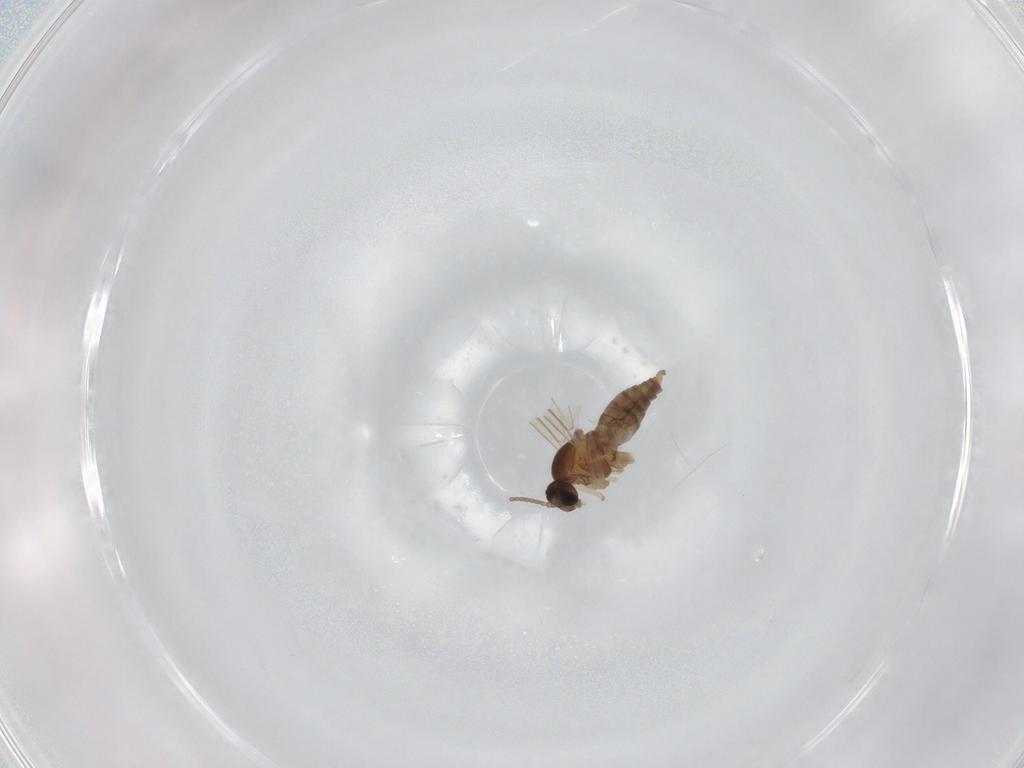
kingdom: Animalia
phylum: Arthropoda
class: Insecta
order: Diptera
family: Cecidomyiidae
